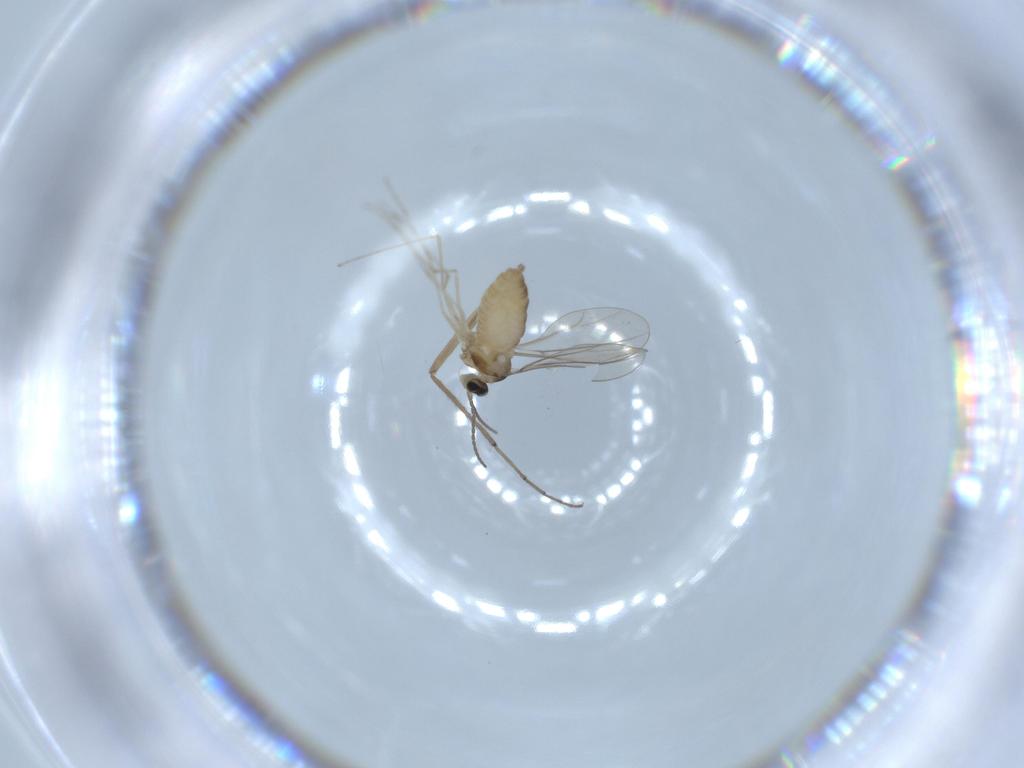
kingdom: Animalia
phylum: Arthropoda
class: Insecta
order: Diptera
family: Cecidomyiidae
